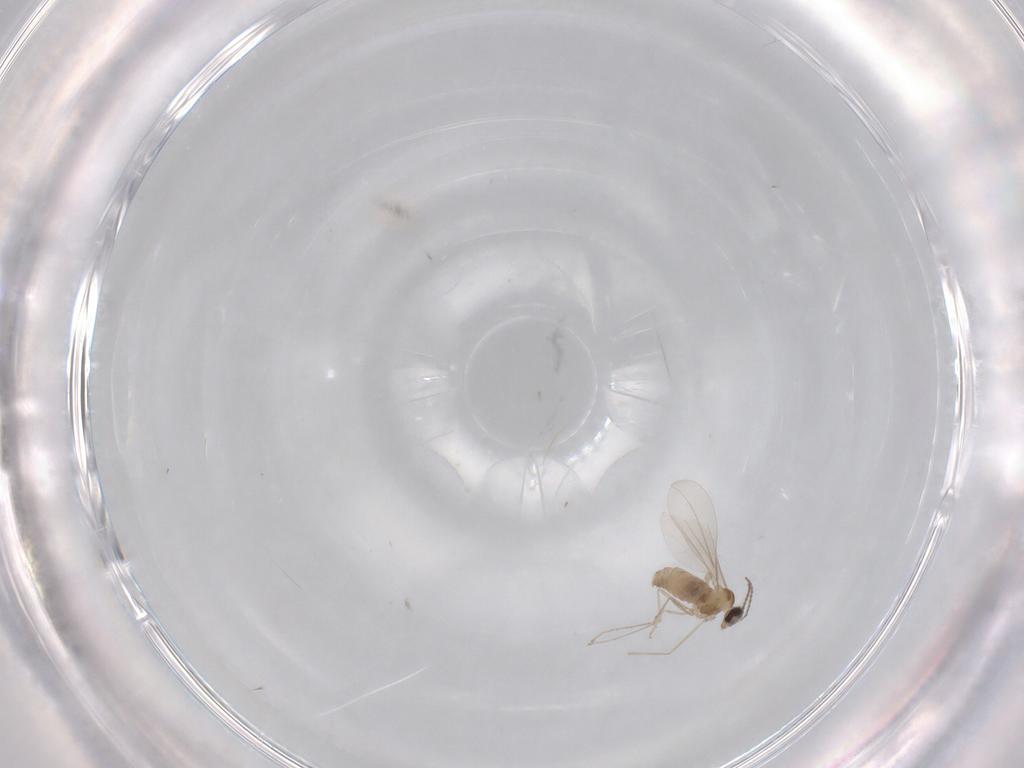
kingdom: Animalia
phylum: Arthropoda
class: Insecta
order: Diptera
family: Cecidomyiidae
